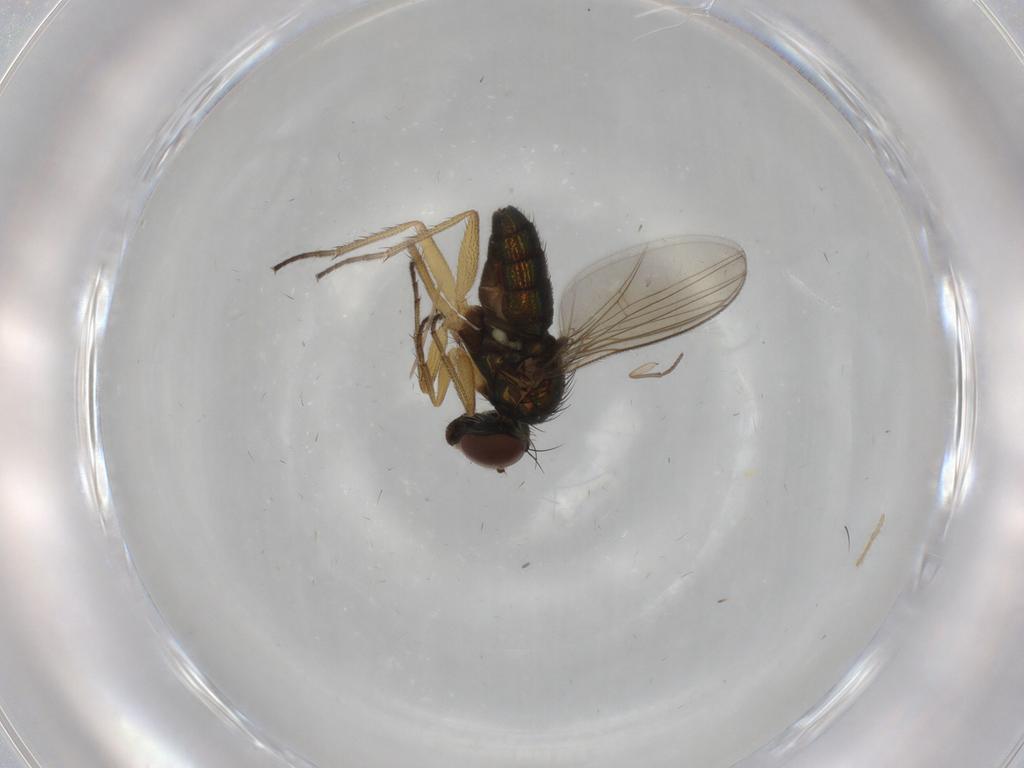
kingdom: Animalia
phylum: Arthropoda
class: Insecta
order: Diptera
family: Dolichopodidae
